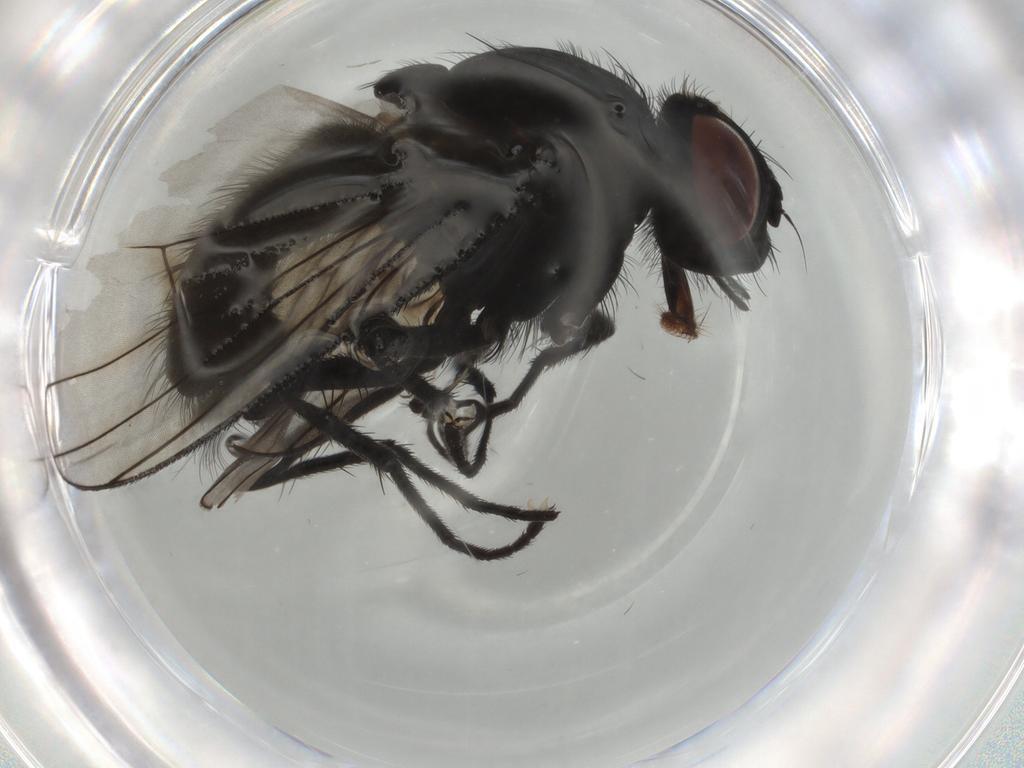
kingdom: Animalia
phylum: Arthropoda
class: Insecta
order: Diptera
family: Muscidae
